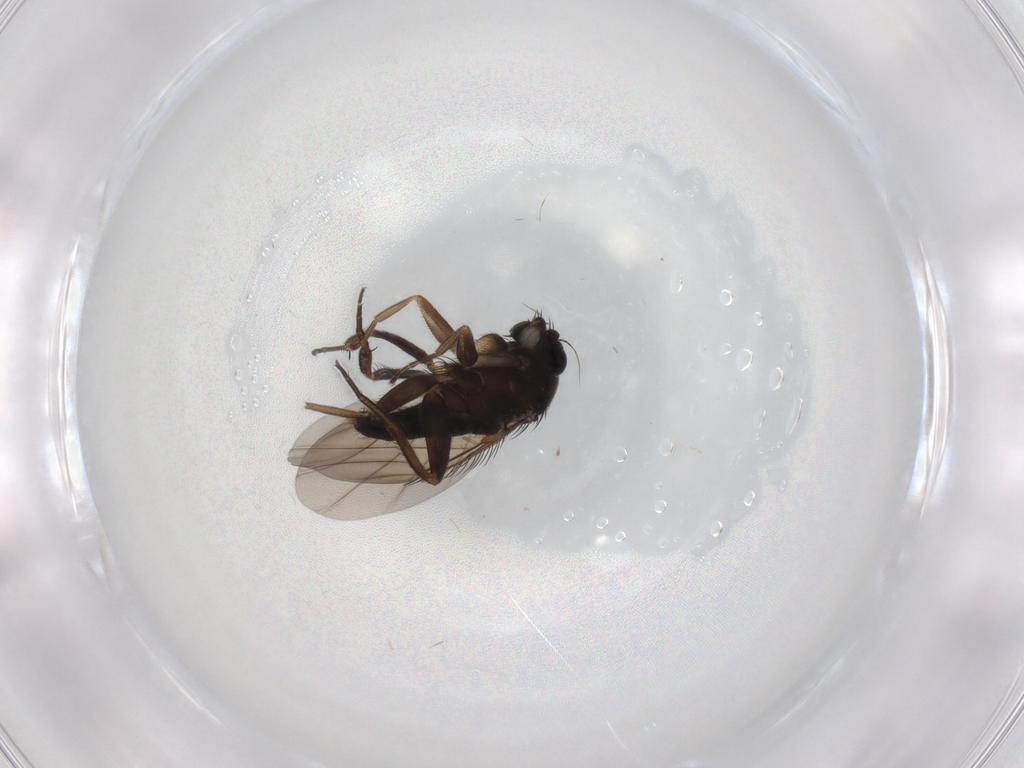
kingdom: Animalia
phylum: Arthropoda
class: Insecta
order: Diptera
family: Phoridae
